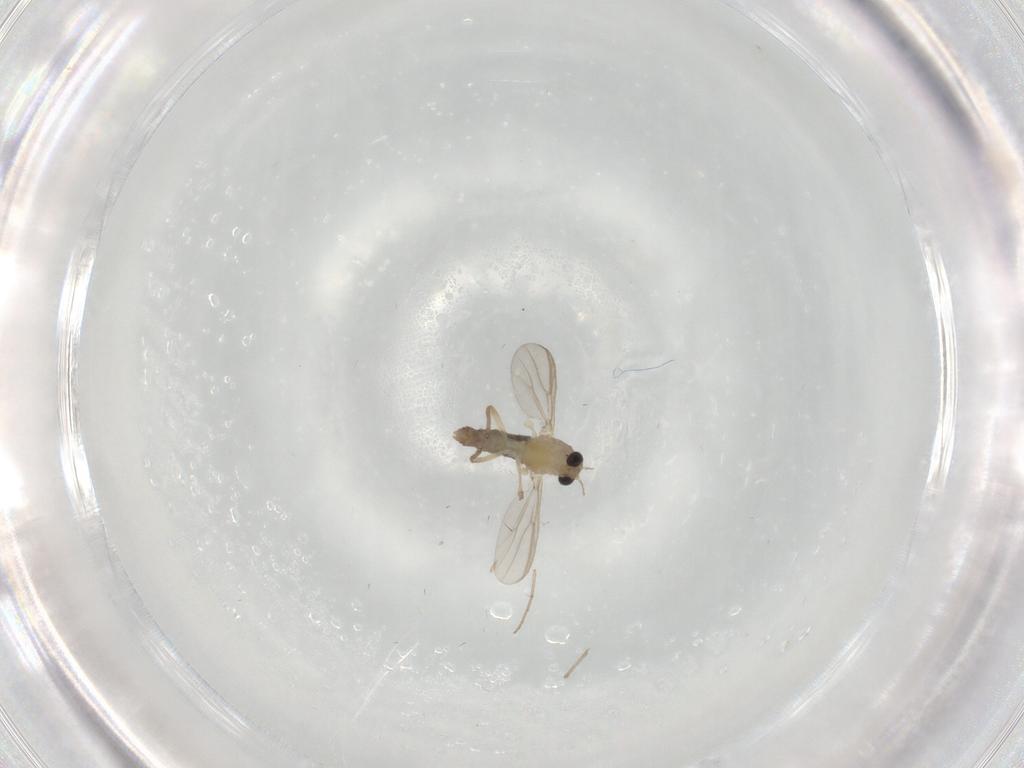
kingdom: Animalia
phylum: Arthropoda
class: Insecta
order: Diptera
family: Chironomidae
